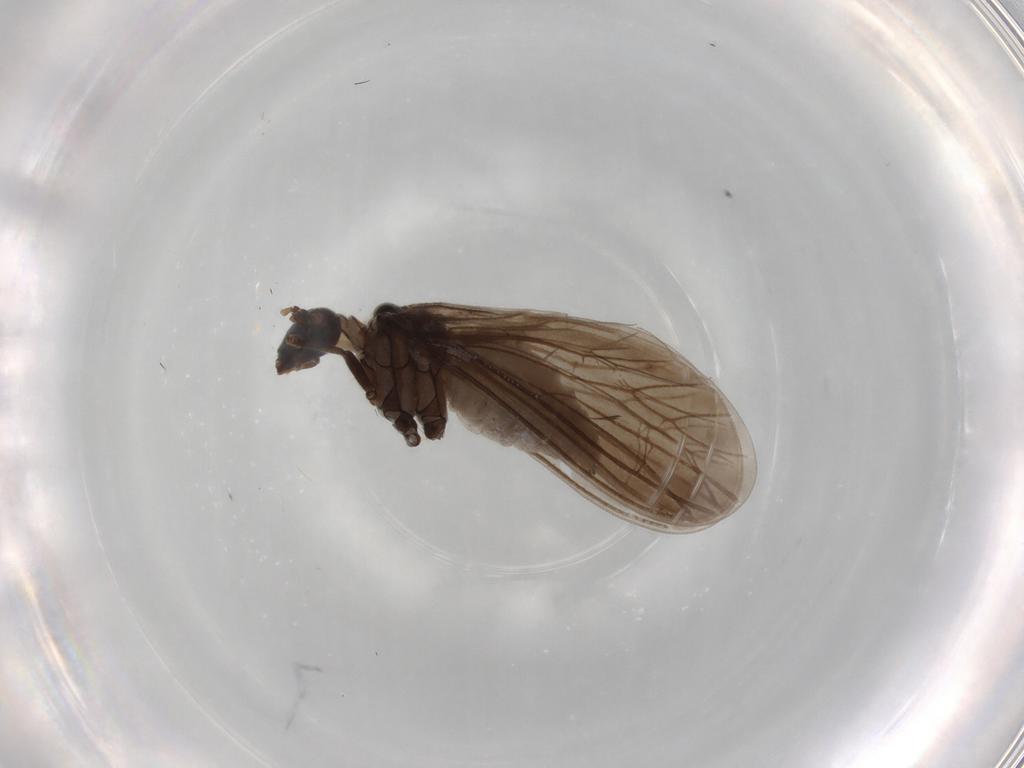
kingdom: Animalia
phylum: Arthropoda
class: Insecta
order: Neuroptera
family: Coniopterygidae
